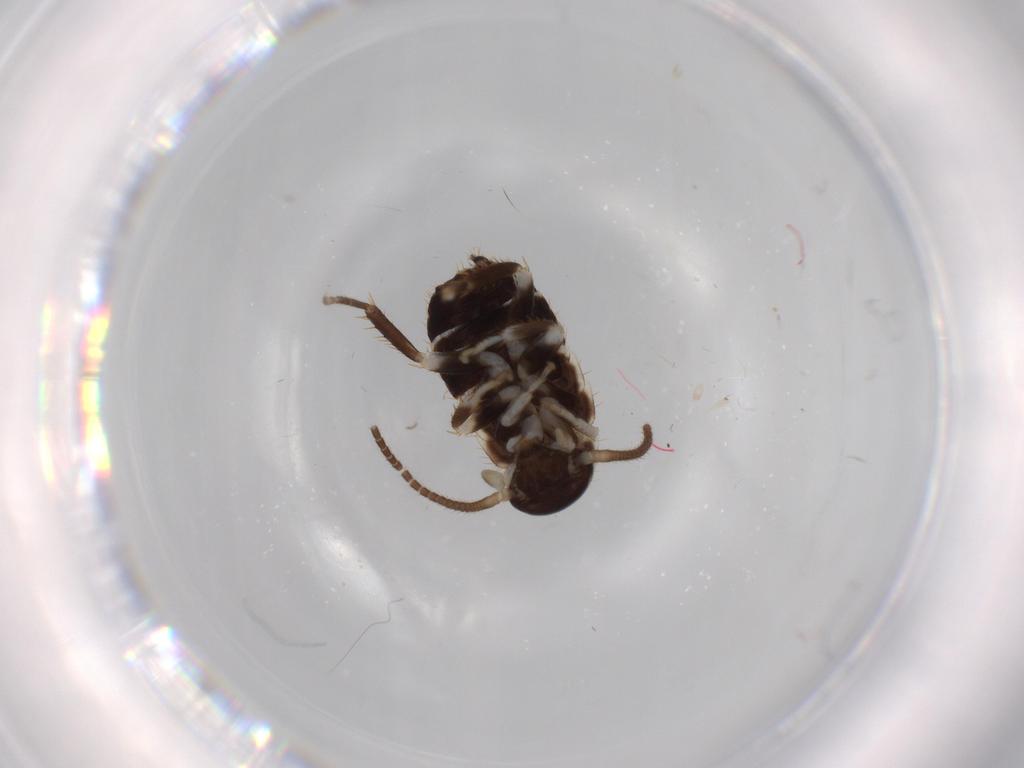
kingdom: Animalia
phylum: Arthropoda
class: Insecta
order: Blattodea
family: Ectobiidae
